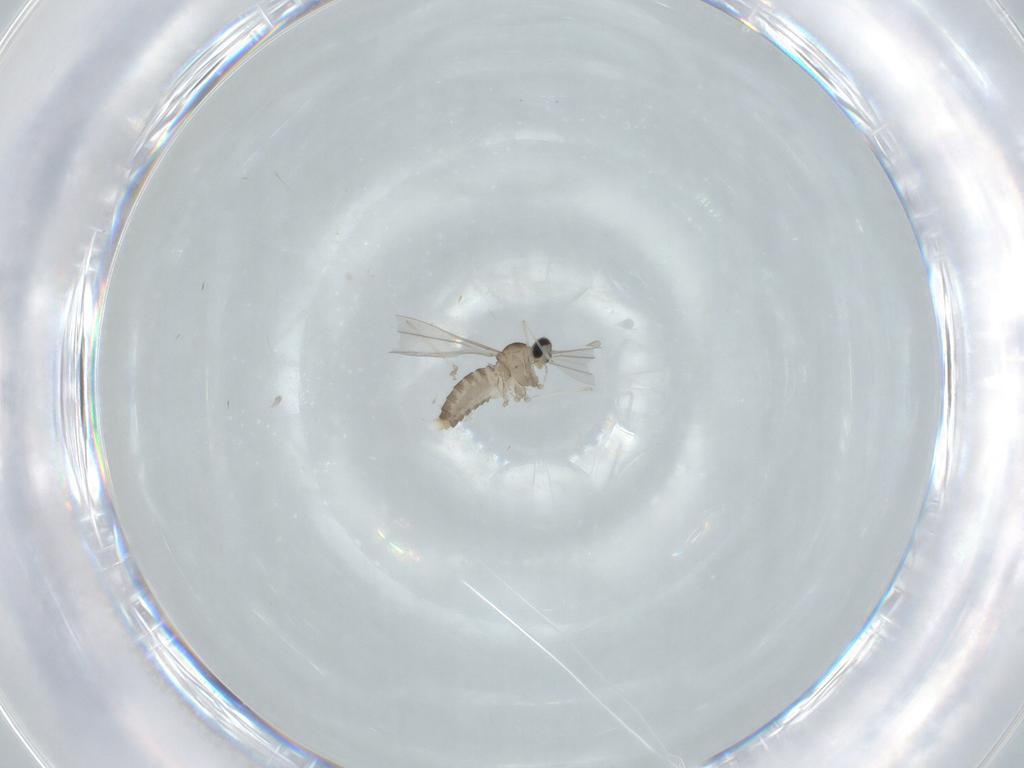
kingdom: Animalia
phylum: Arthropoda
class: Insecta
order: Diptera
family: Cecidomyiidae
